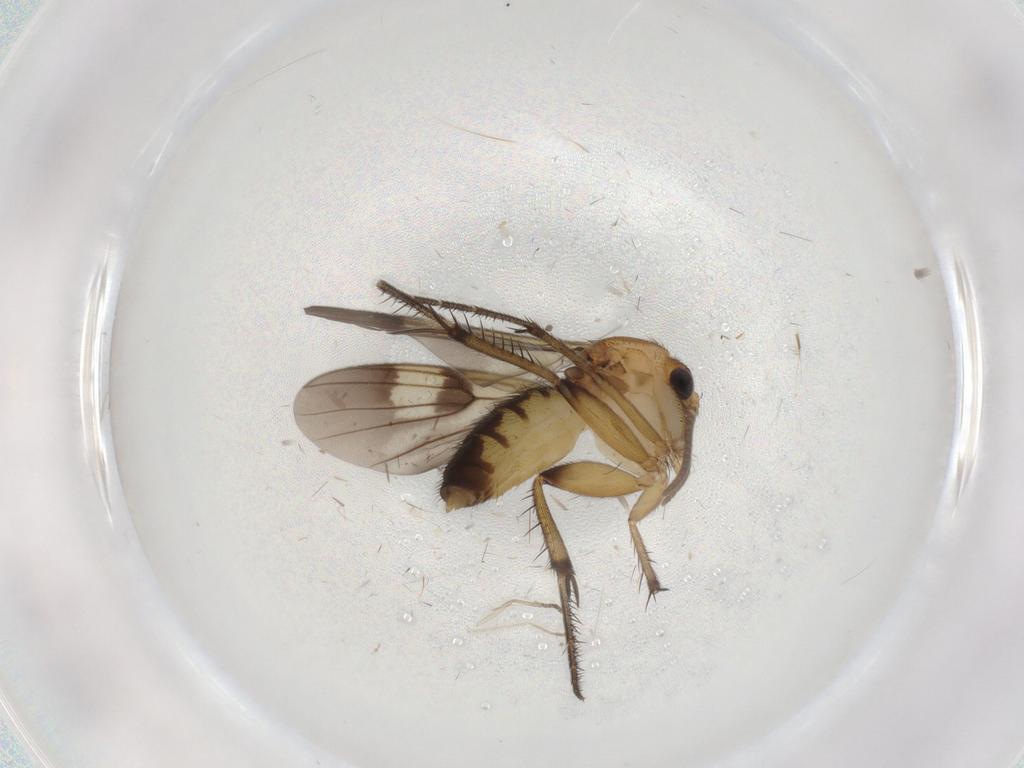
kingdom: Animalia
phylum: Arthropoda
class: Insecta
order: Diptera
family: Mycetophilidae
